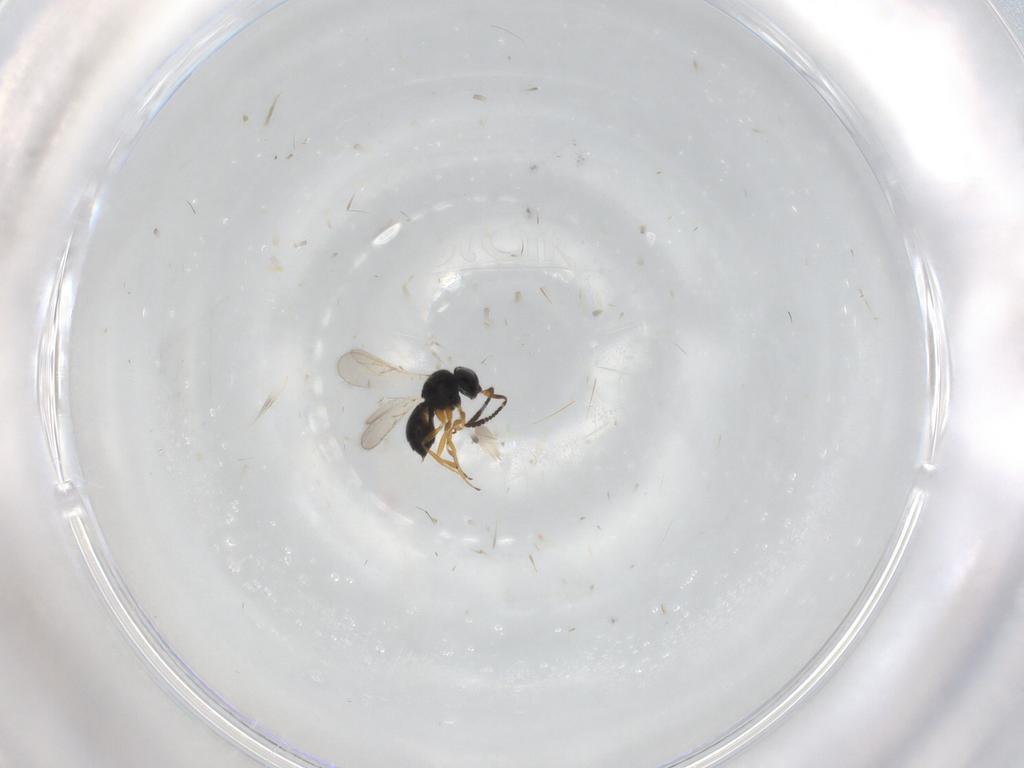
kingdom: Animalia
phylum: Arthropoda
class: Insecta
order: Hymenoptera
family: Scelionidae
